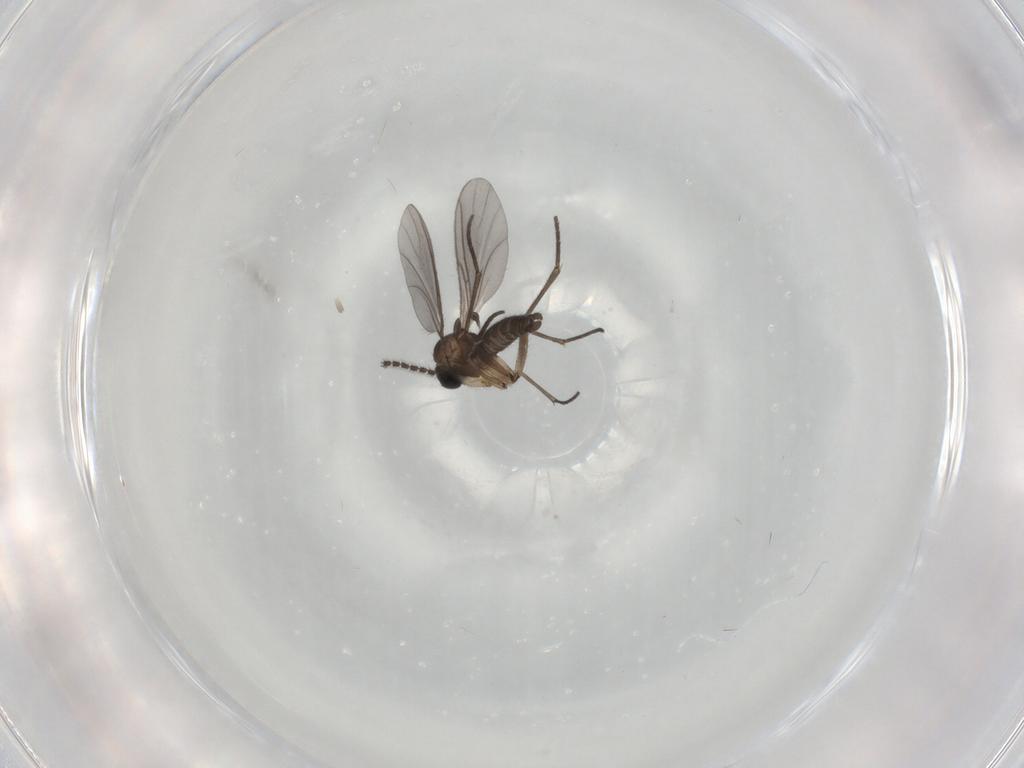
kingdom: Animalia
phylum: Arthropoda
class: Insecta
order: Diptera
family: Sciaridae
